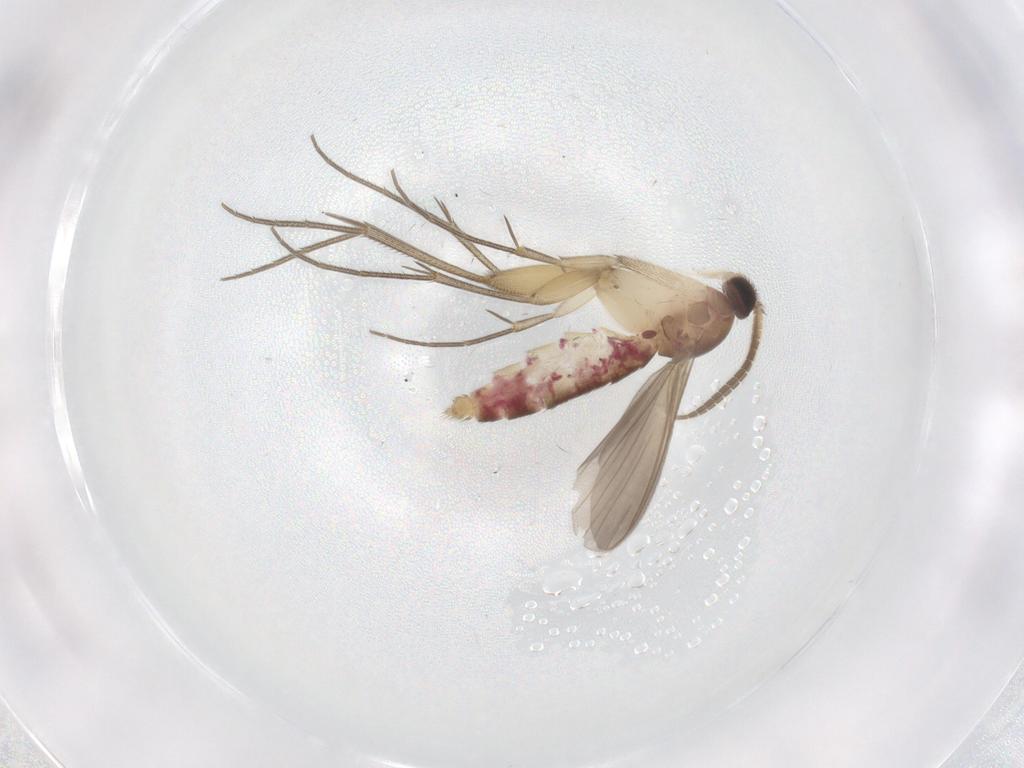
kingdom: Animalia
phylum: Arthropoda
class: Insecta
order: Diptera
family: Mycetophilidae
